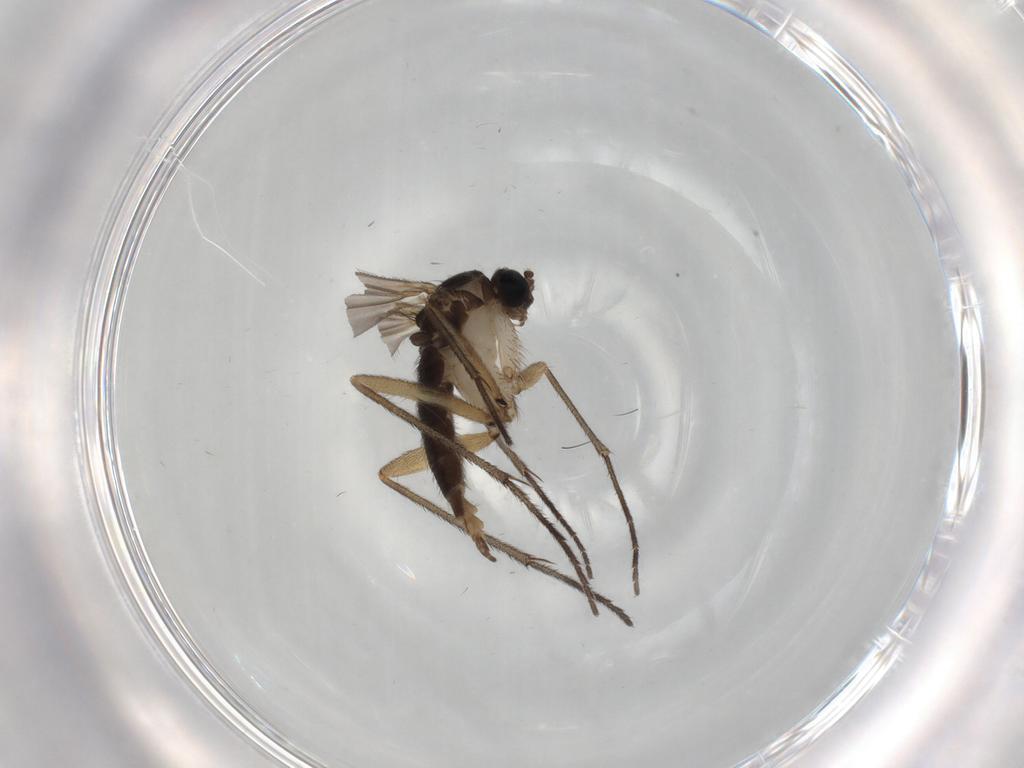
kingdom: Animalia
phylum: Arthropoda
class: Insecta
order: Diptera
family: Sciaridae
